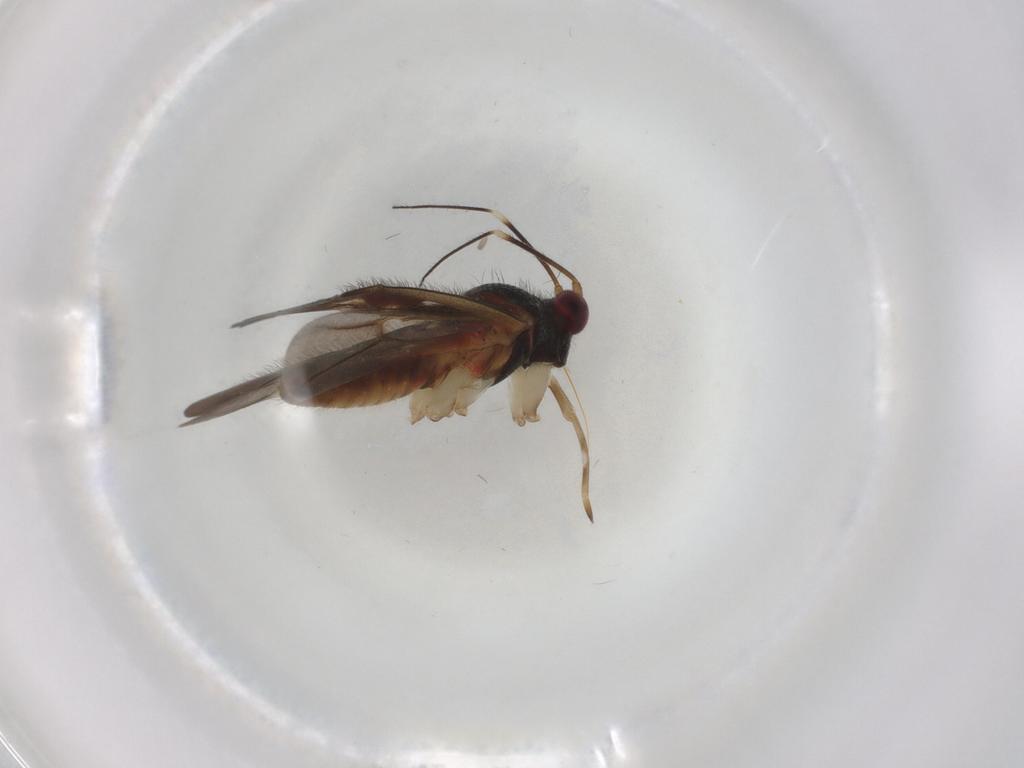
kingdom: Animalia
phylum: Arthropoda
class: Insecta
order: Hemiptera
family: Miridae
